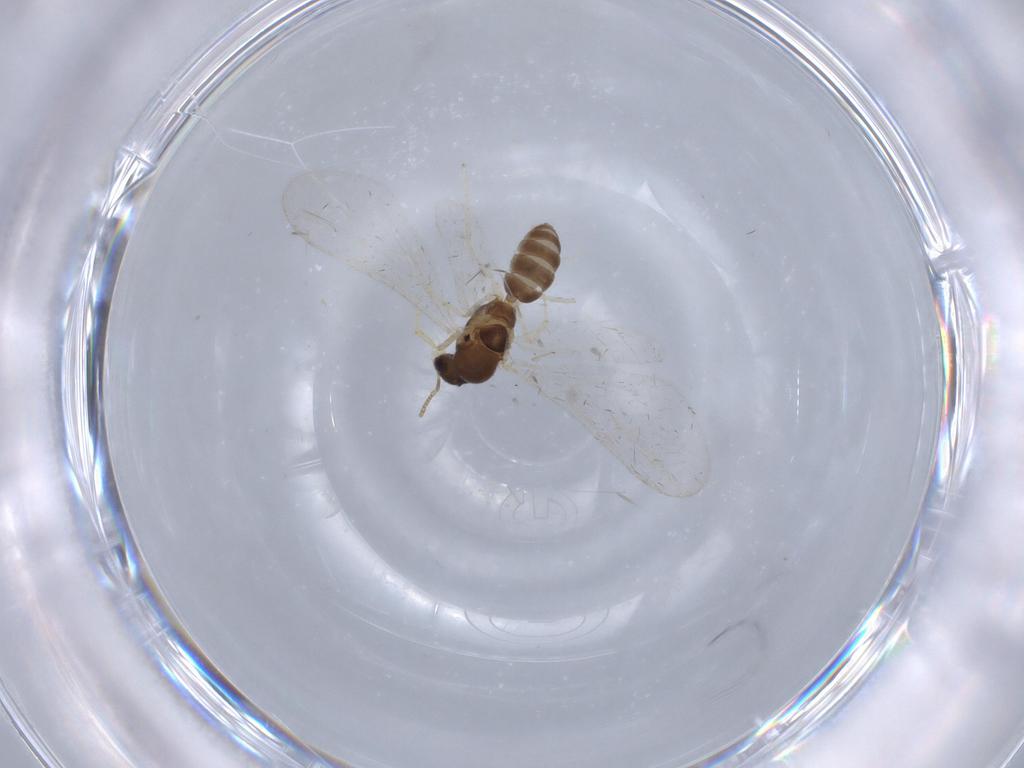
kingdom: Animalia
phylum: Arthropoda
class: Insecta
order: Hymenoptera
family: Formicidae
